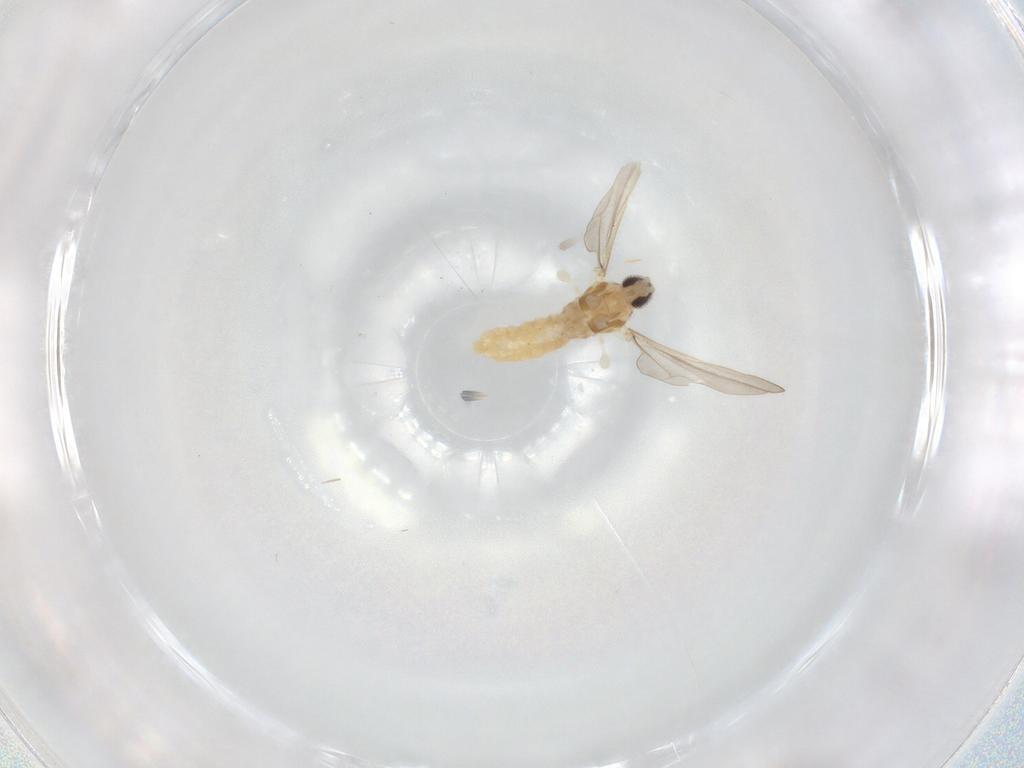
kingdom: Animalia
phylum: Arthropoda
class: Insecta
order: Diptera
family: Cecidomyiidae
